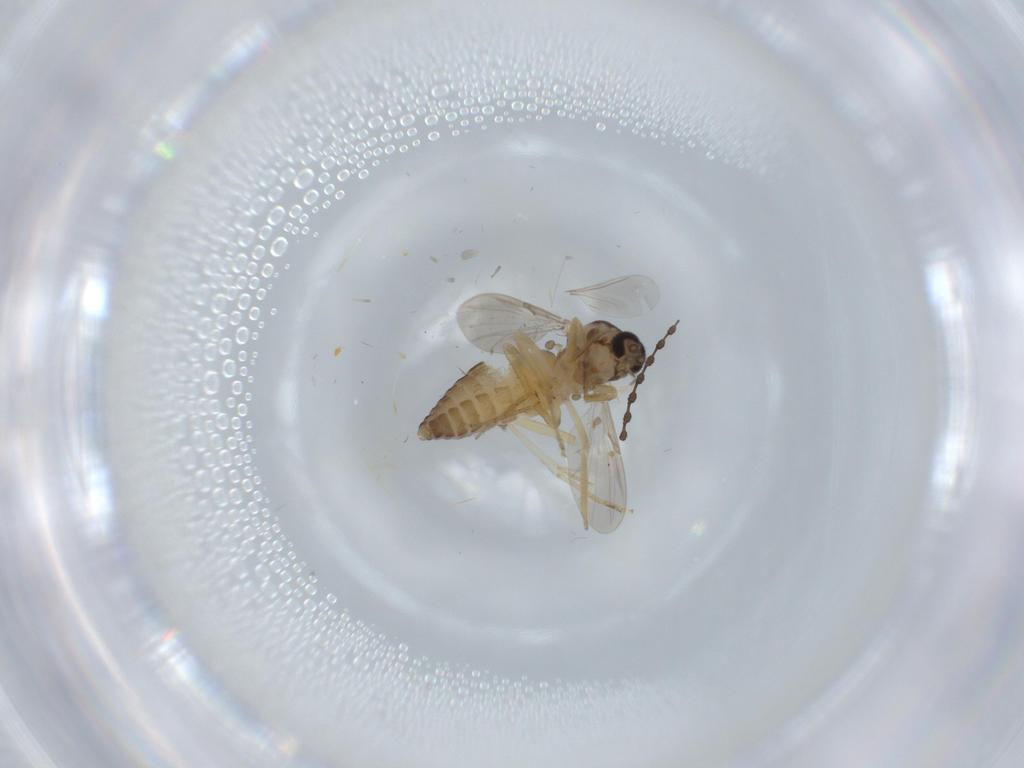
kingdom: Animalia
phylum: Arthropoda
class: Insecta
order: Diptera
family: Ceratopogonidae
